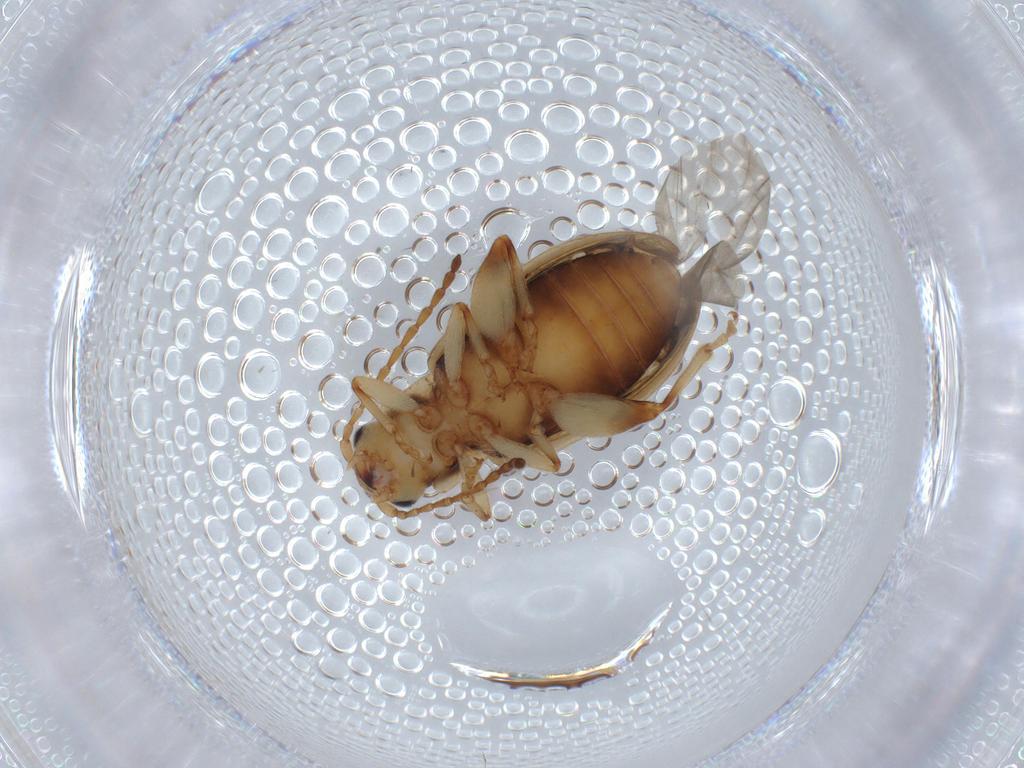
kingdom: Animalia
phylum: Arthropoda
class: Insecta
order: Coleoptera
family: Chrysomelidae
